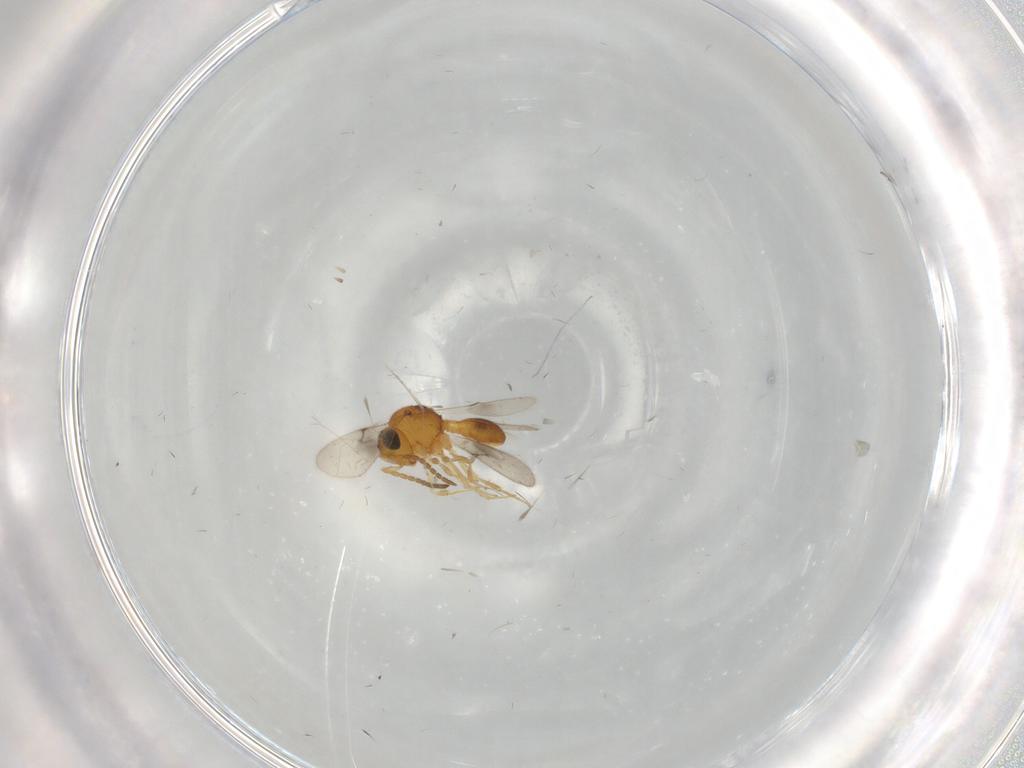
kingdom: Animalia
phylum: Arthropoda
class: Insecta
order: Hymenoptera
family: Scelionidae
